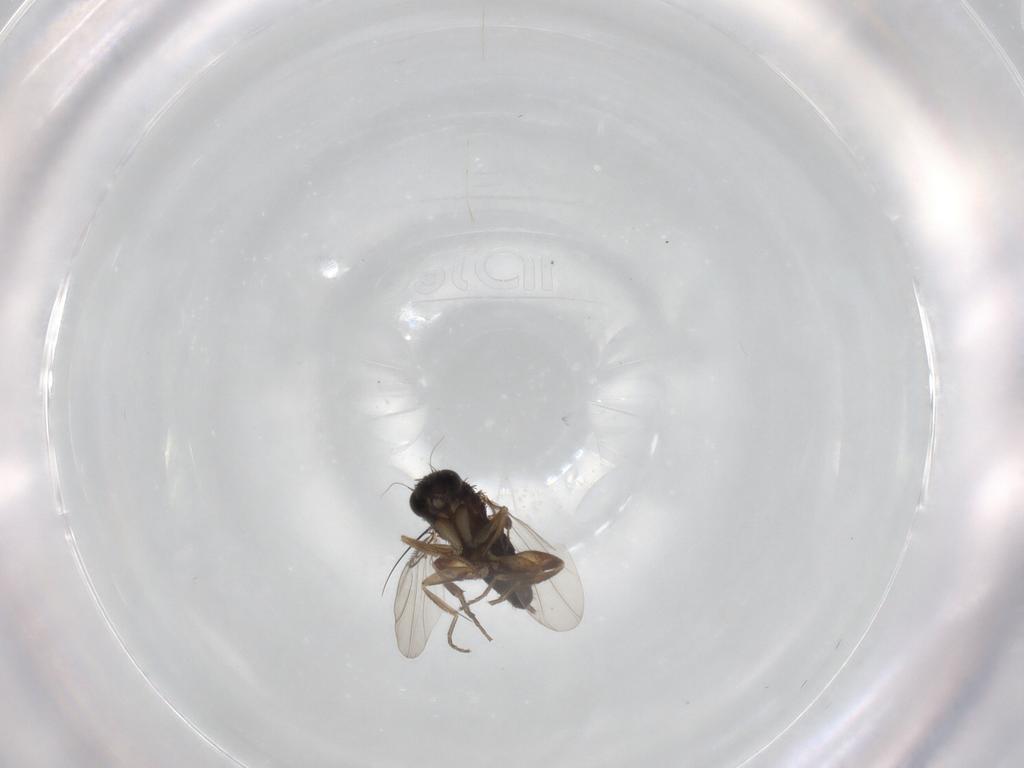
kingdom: Animalia
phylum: Arthropoda
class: Insecta
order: Diptera
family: Phoridae
